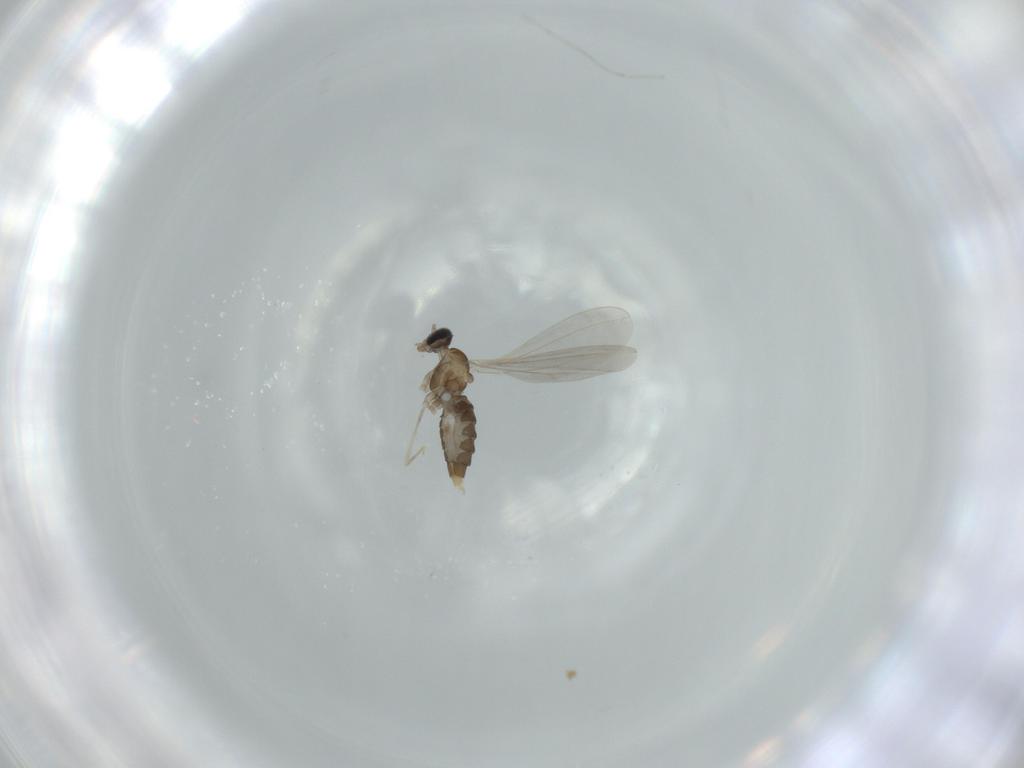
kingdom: Animalia
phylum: Arthropoda
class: Insecta
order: Diptera
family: Cecidomyiidae
